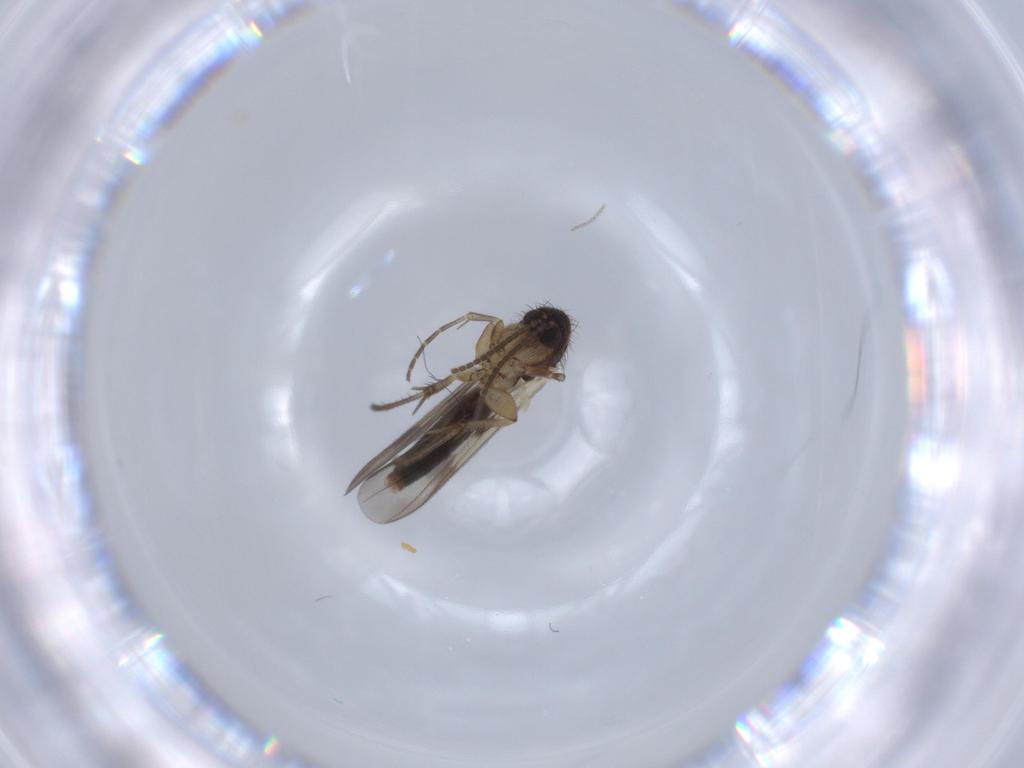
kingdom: Animalia
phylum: Arthropoda
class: Insecta
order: Diptera
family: Cecidomyiidae
